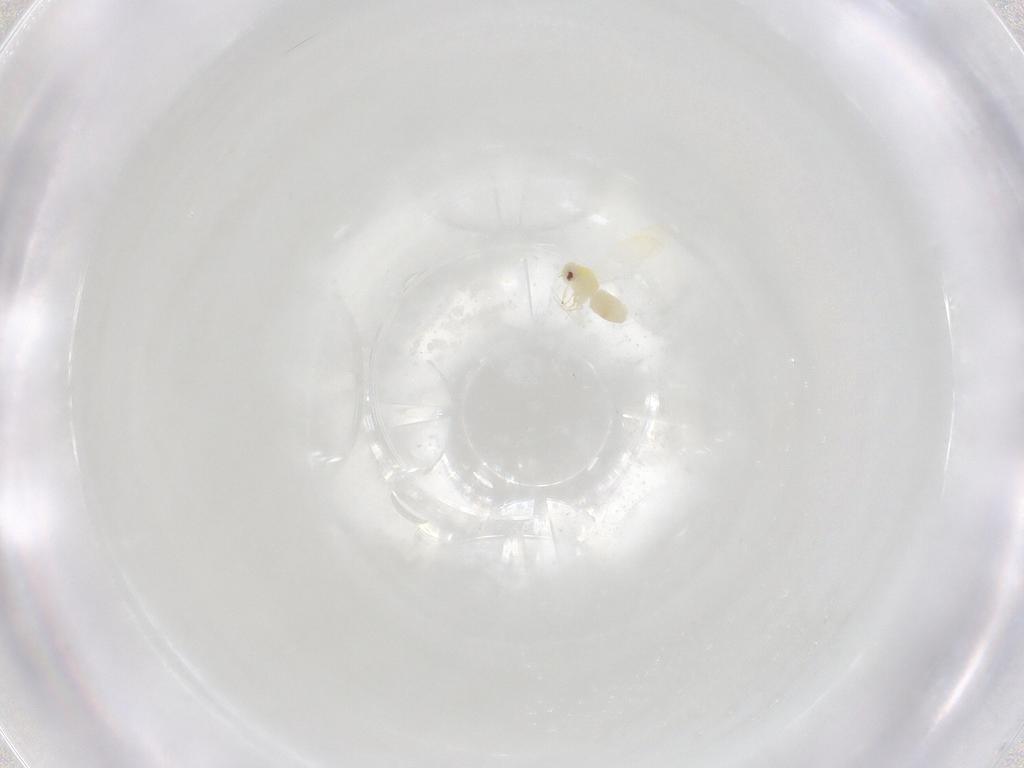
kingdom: Animalia
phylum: Arthropoda
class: Insecta
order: Hemiptera
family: Aleyrodidae
